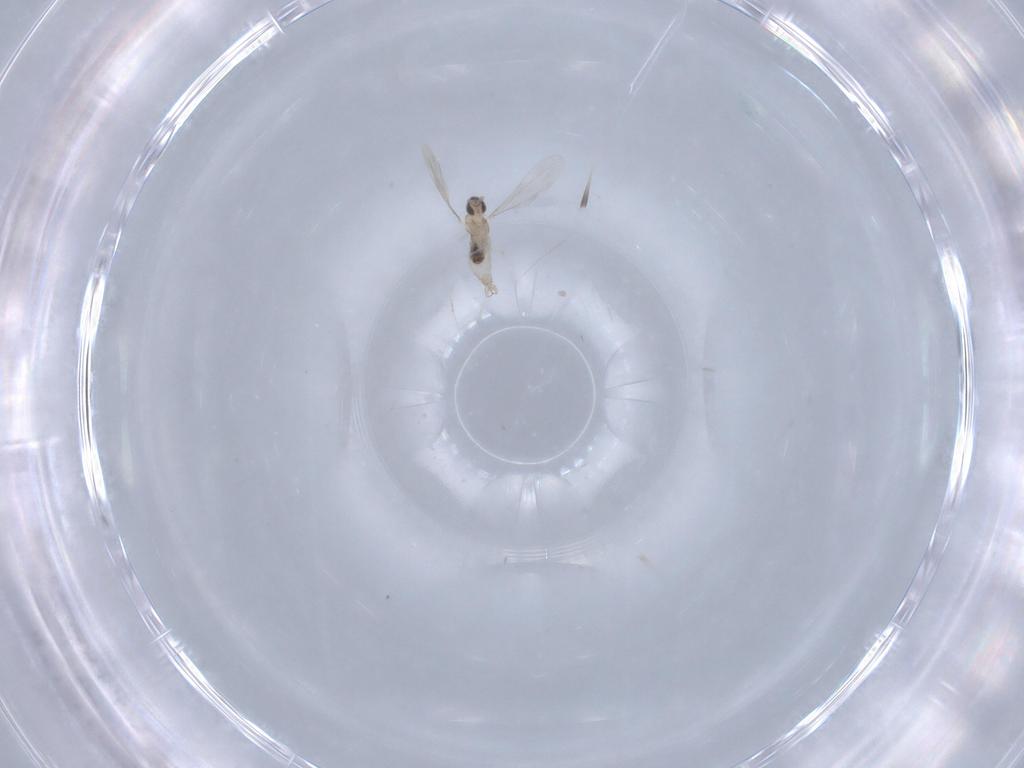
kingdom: Animalia
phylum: Arthropoda
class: Insecta
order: Diptera
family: Cecidomyiidae
